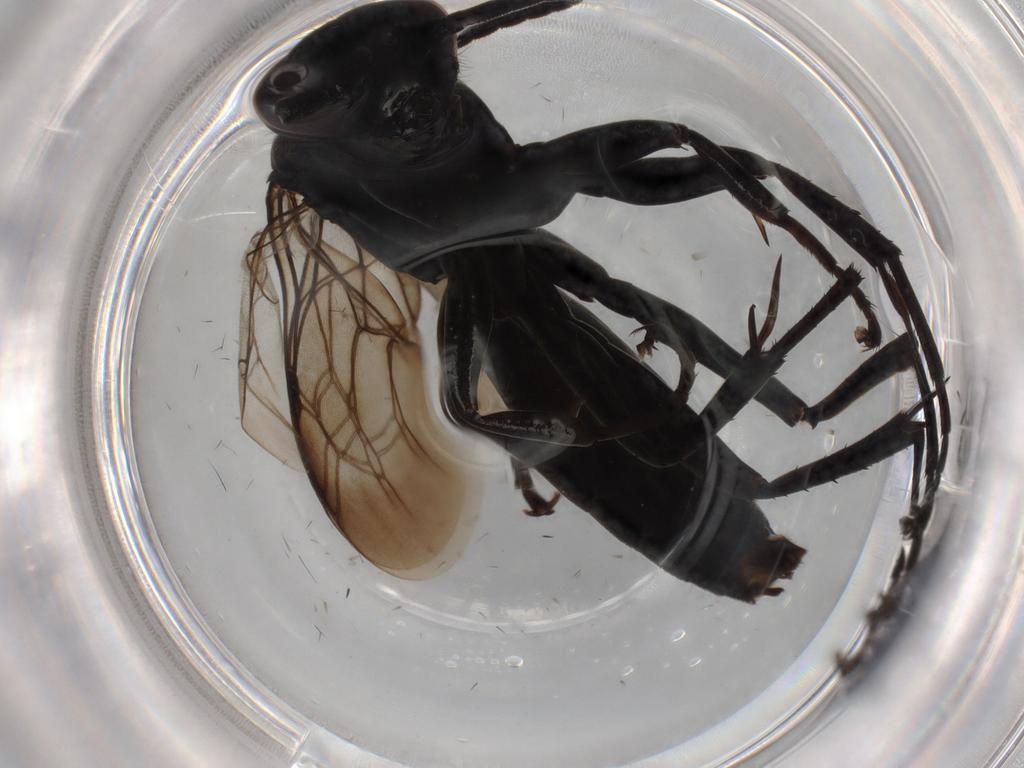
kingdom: Animalia
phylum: Arthropoda
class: Insecta
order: Hymenoptera
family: Pompilidae
